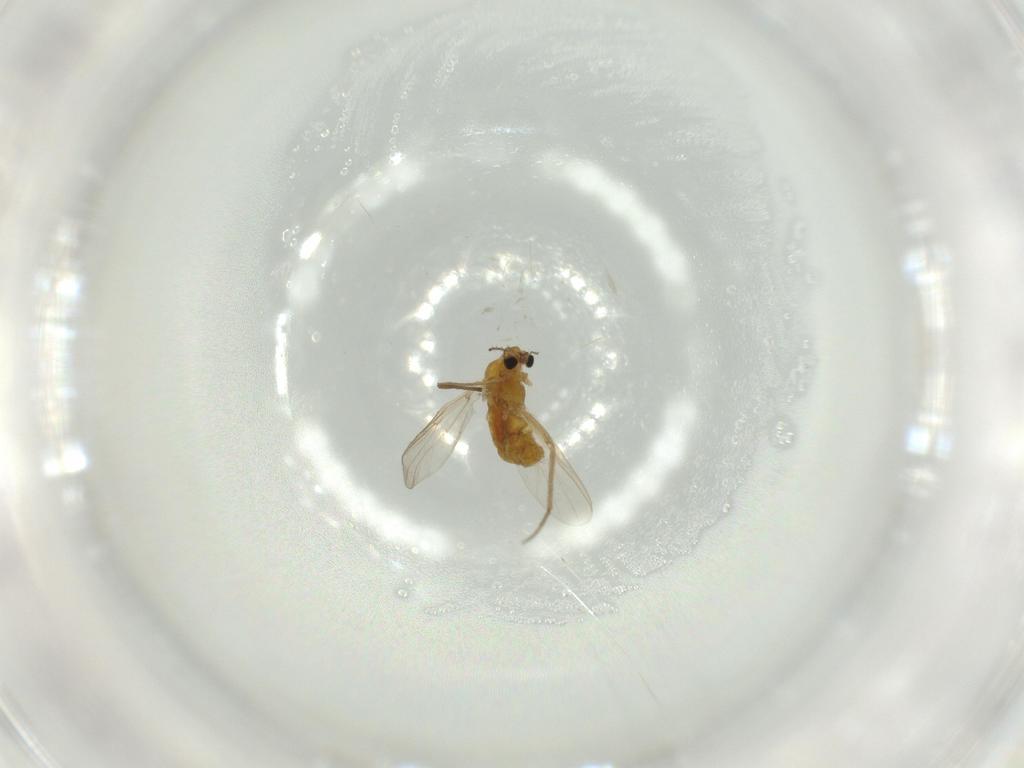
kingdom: Animalia
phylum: Arthropoda
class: Insecta
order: Diptera
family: Chironomidae
